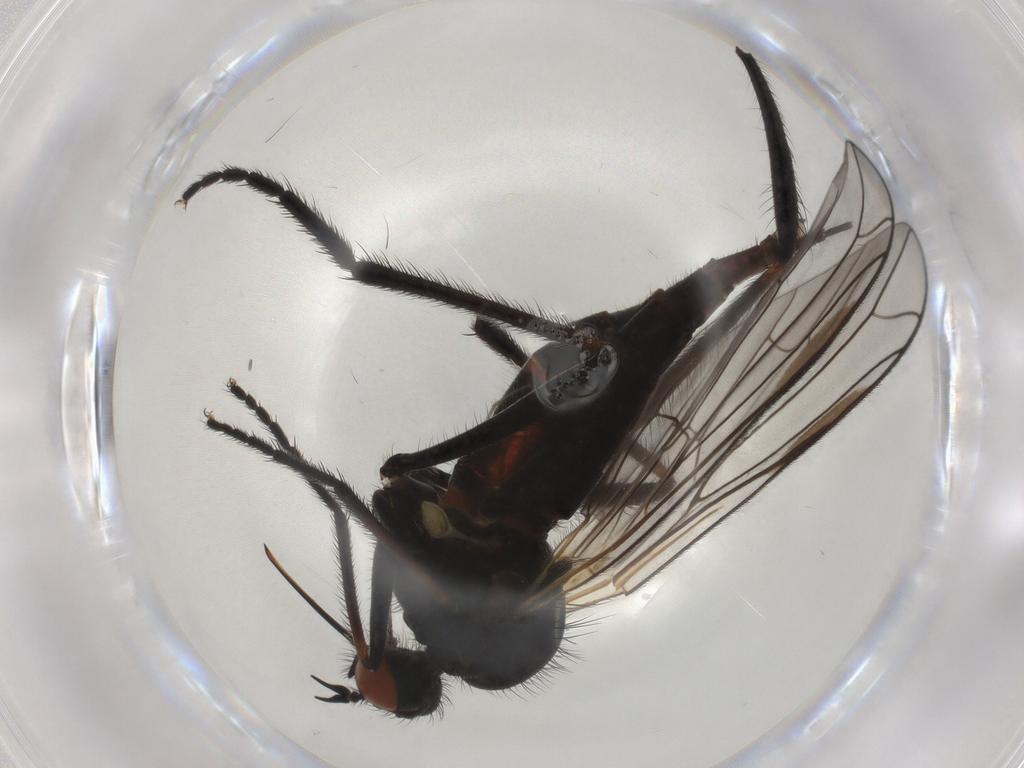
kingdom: Animalia
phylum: Arthropoda
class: Insecta
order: Diptera
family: Empididae
